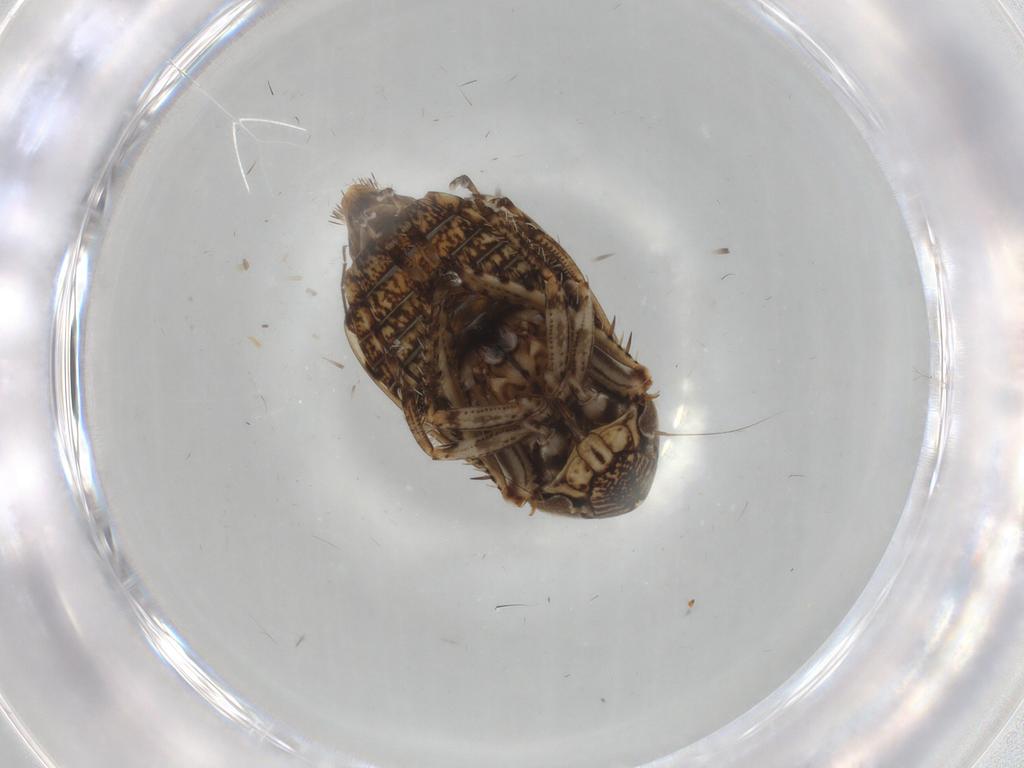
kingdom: Animalia
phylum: Arthropoda
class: Insecta
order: Hemiptera
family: Cicadellidae
